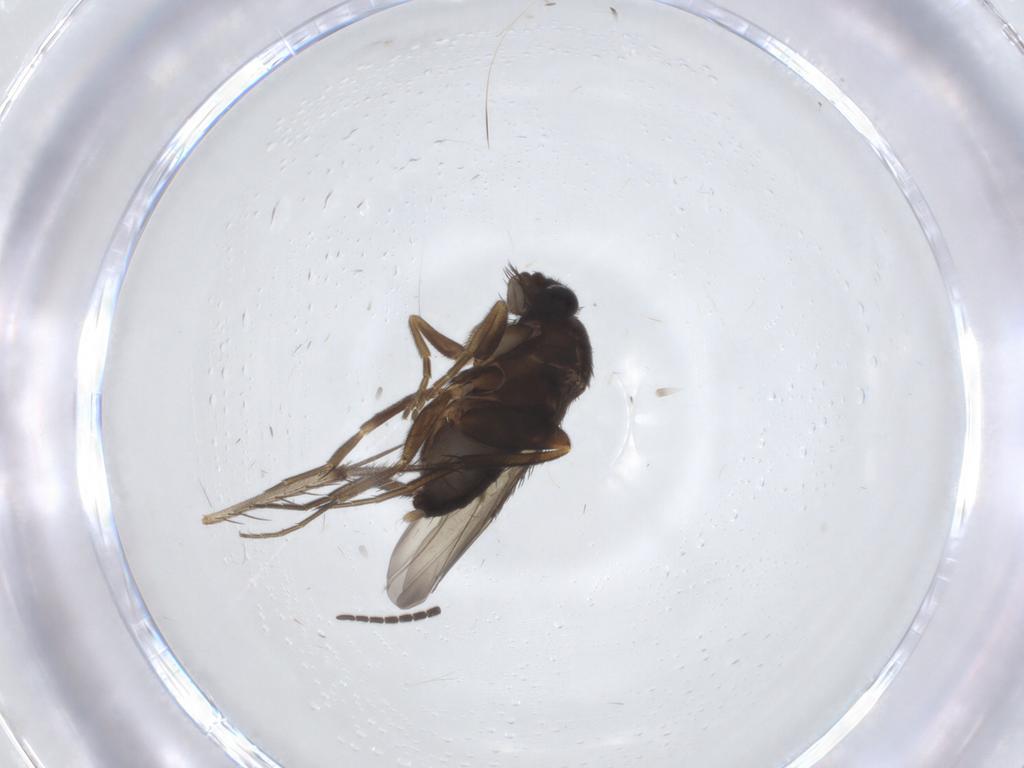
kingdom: Animalia
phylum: Arthropoda
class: Insecta
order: Diptera
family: Phoridae
